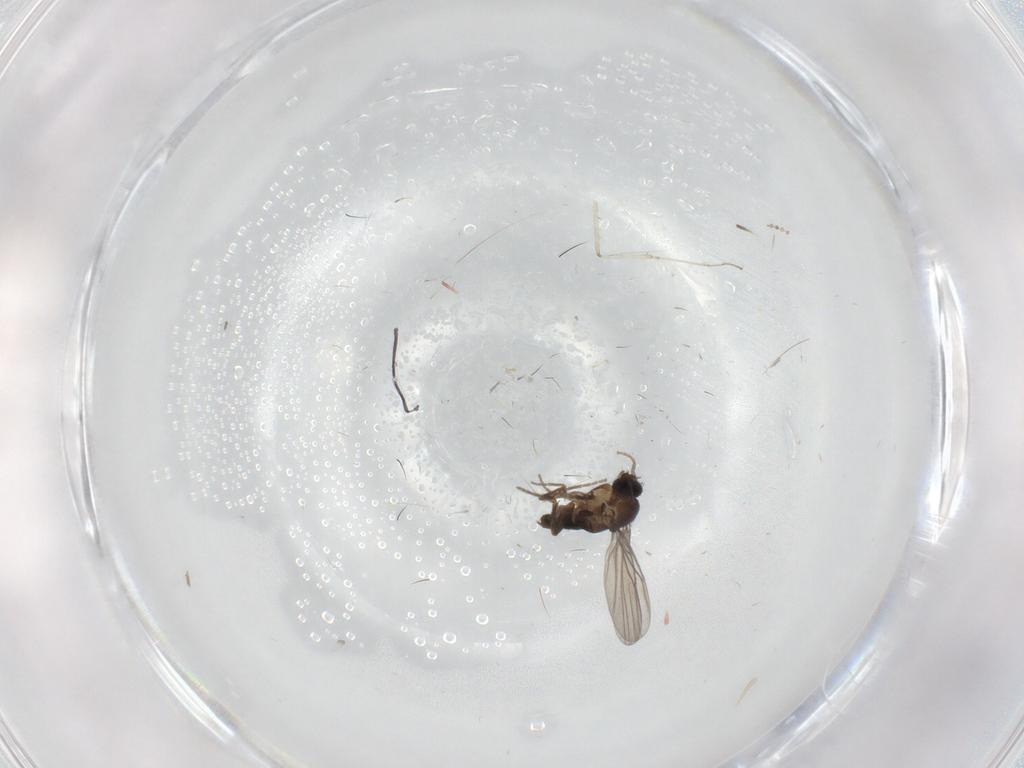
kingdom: Animalia
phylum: Arthropoda
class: Insecta
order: Diptera
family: Phoridae
